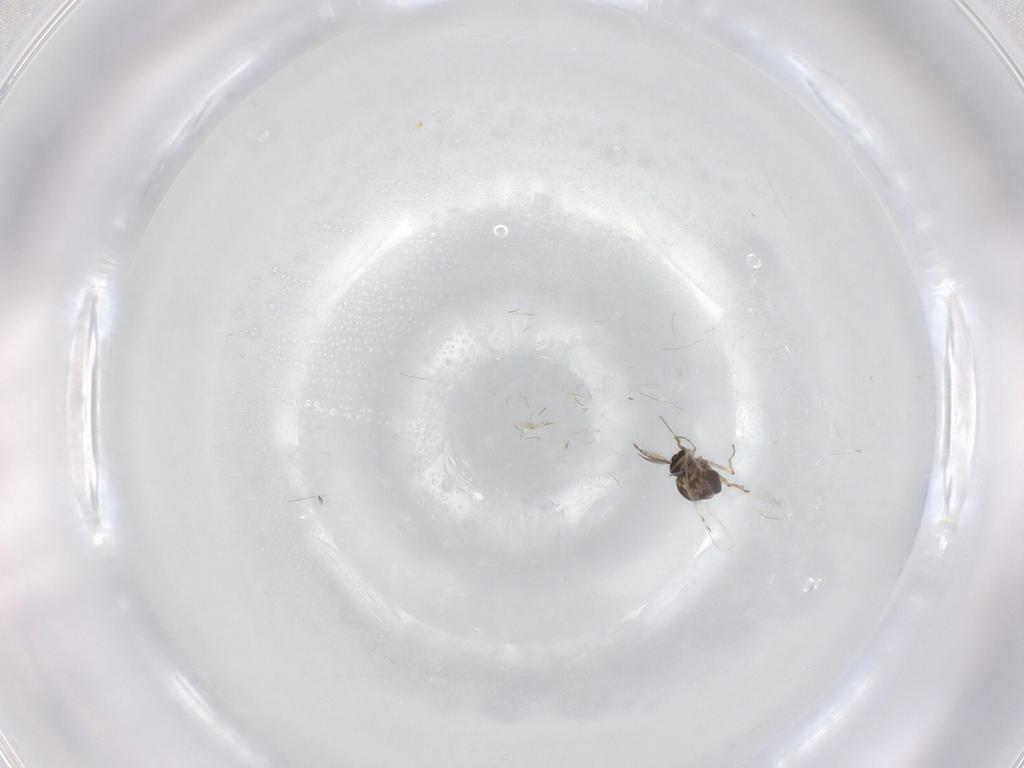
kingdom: Animalia
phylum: Arthropoda
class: Insecta
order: Diptera
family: Ceratopogonidae
